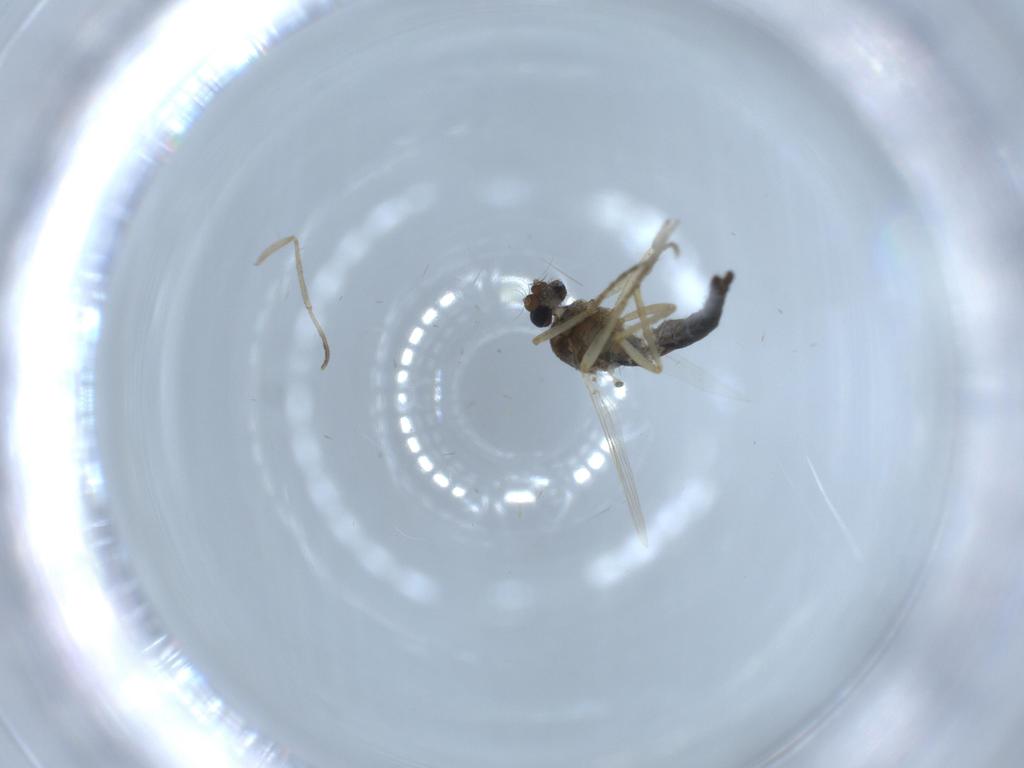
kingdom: Animalia
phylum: Arthropoda
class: Insecta
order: Diptera
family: Ceratopogonidae
